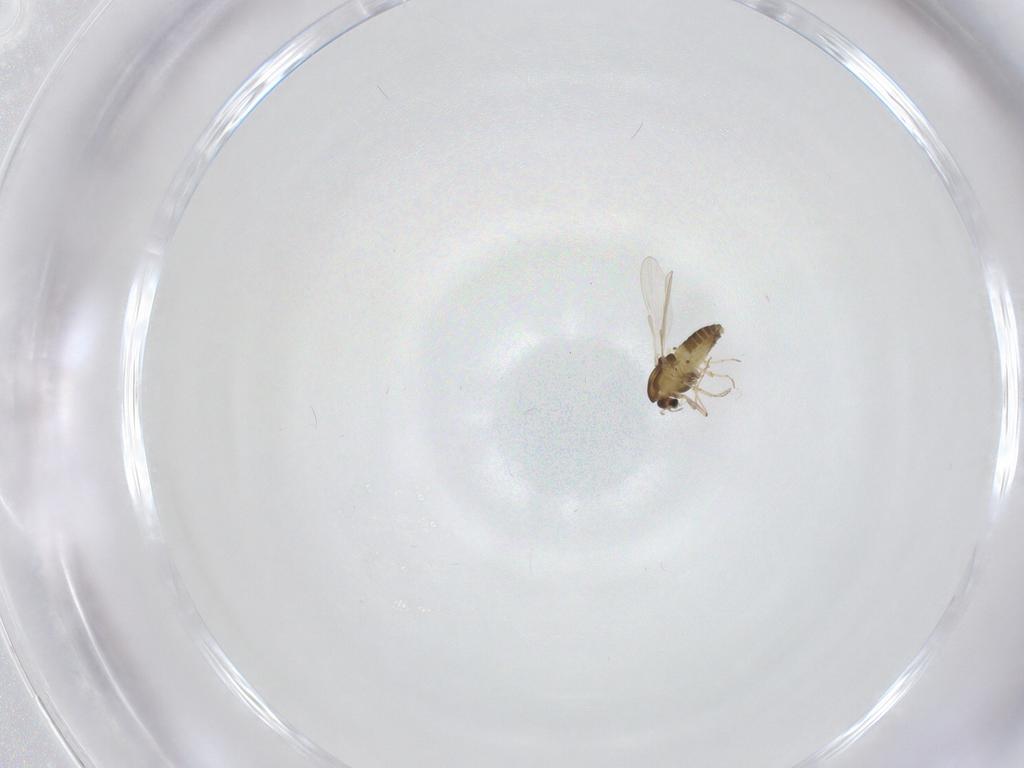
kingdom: Animalia
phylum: Arthropoda
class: Insecta
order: Diptera
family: Chironomidae
